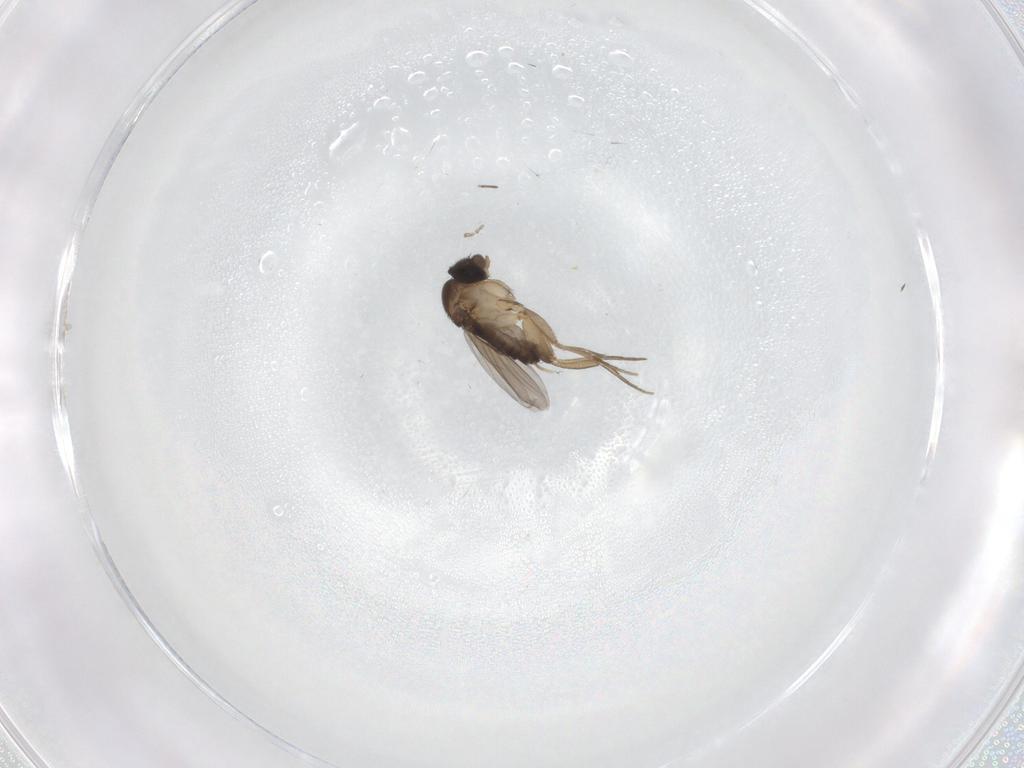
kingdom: Animalia
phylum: Arthropoda
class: Insecta
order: Diptera
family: Phoridae
